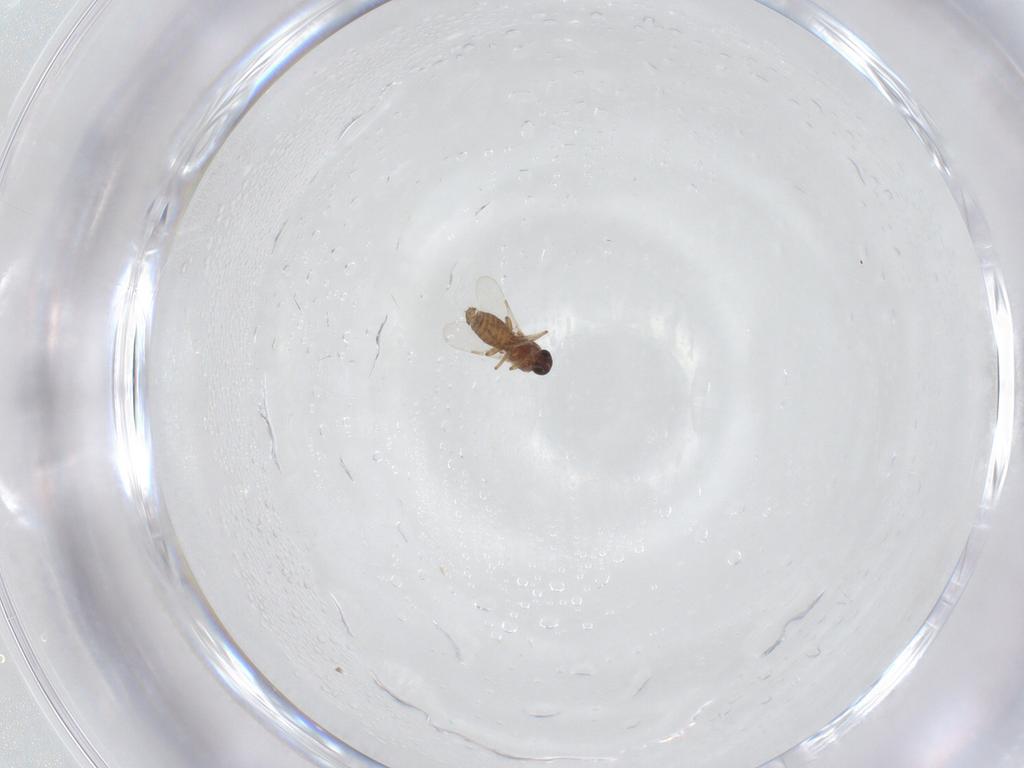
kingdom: Animalia
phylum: Arthropoda
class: Insecta
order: Diptera
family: Ceratopogonidae
